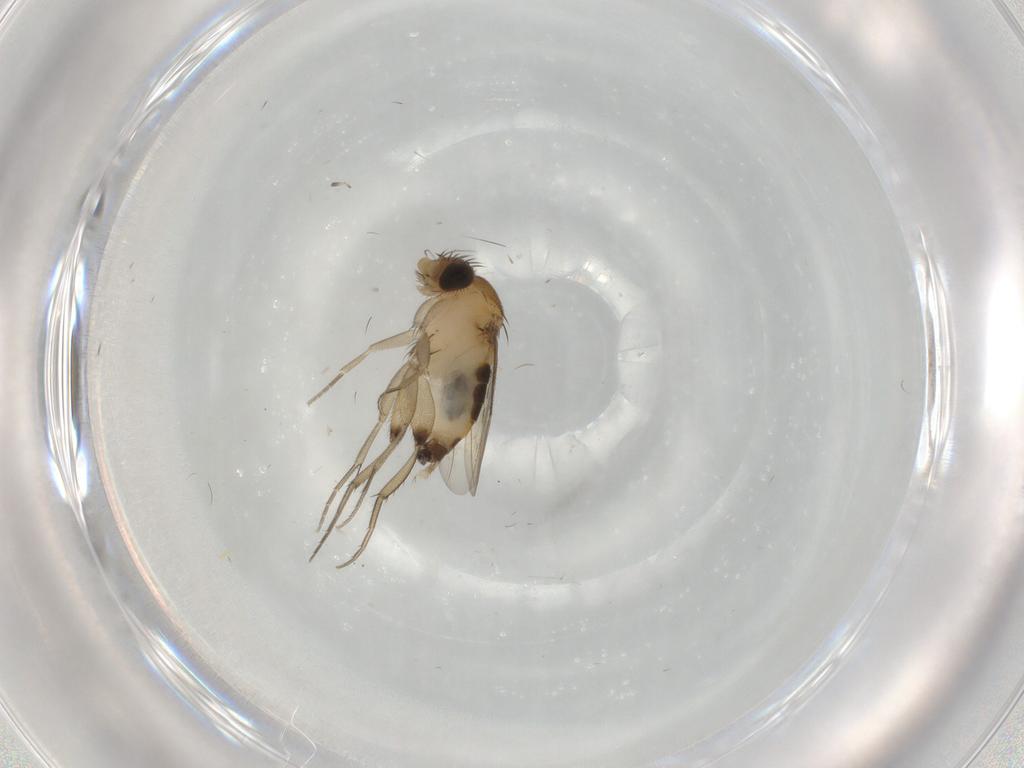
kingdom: Animalia
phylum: Arthropoda
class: Insecta
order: Diptera
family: Phoridae
